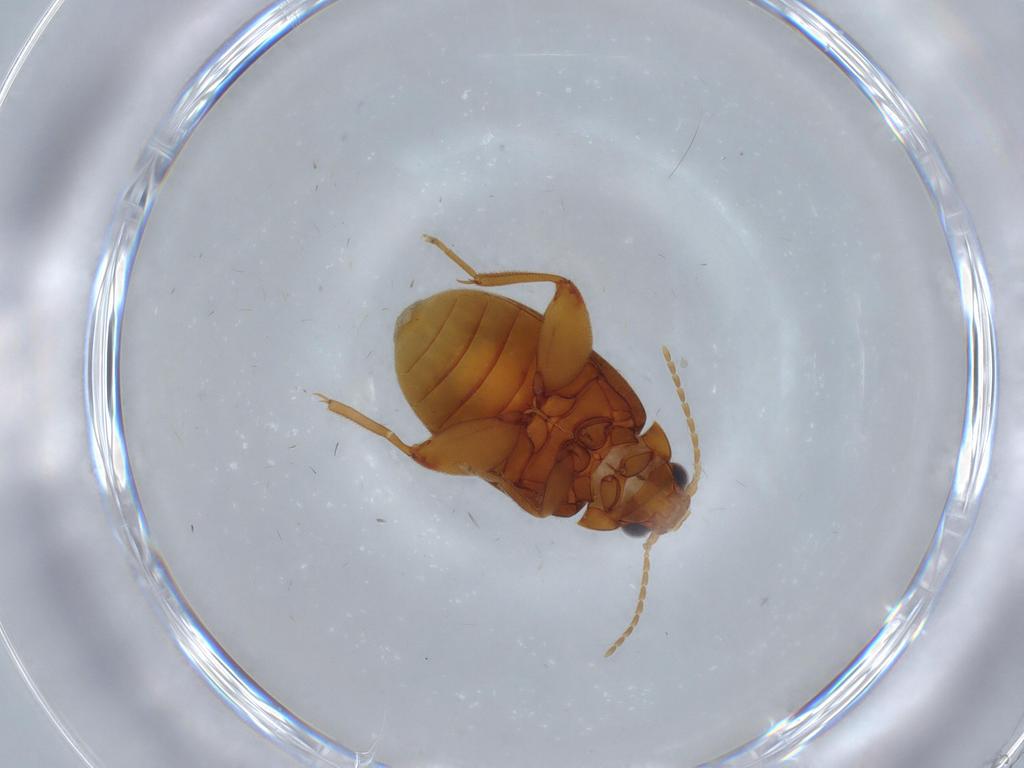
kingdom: Animalia
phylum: Arthropoda
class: Insecta
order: Coleoptera
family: Scirtidae
